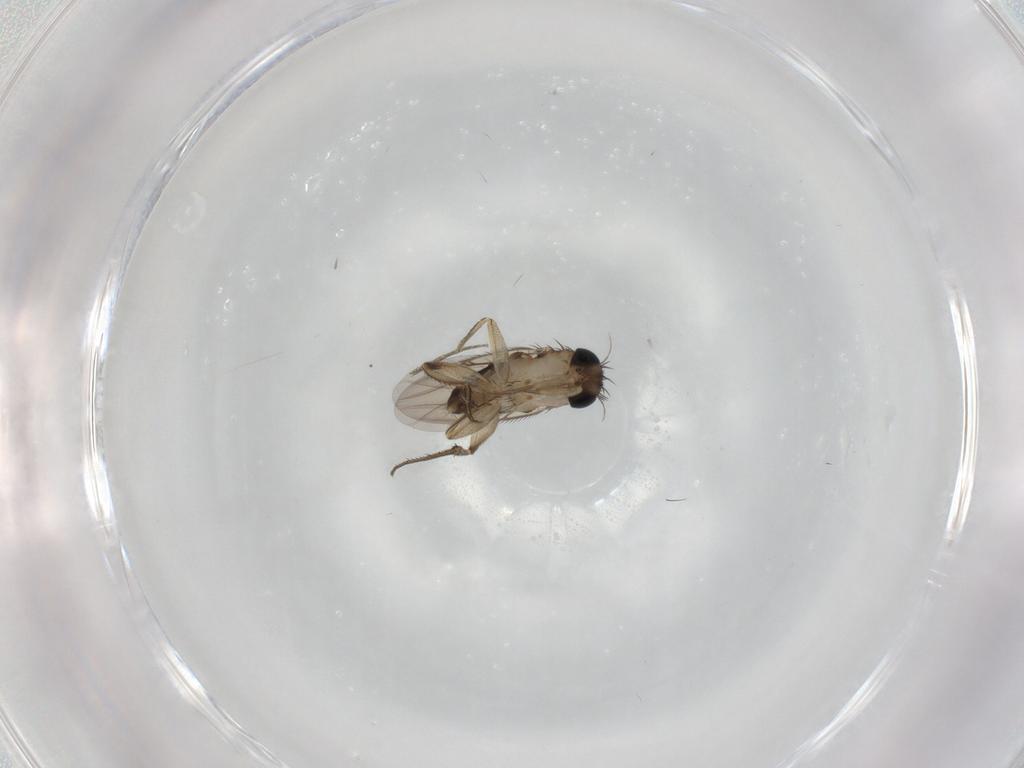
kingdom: Animalia
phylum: Arthropoda
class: Insecta
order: Diptera
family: Phoridae
